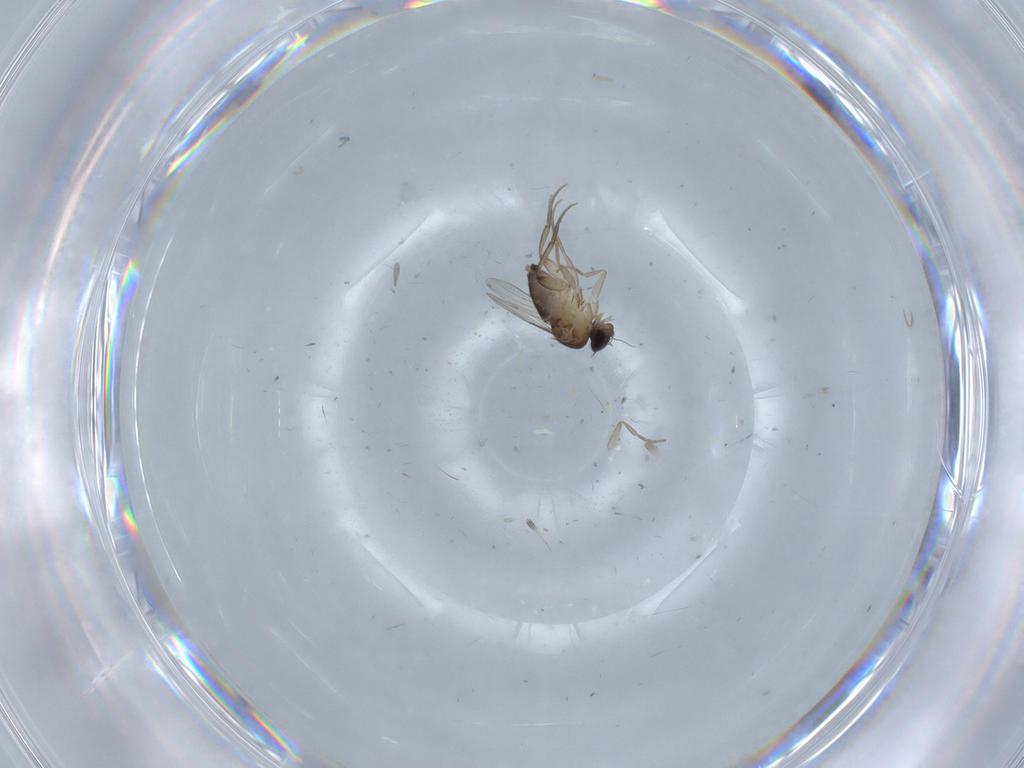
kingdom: Animalia
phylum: Arthropoda
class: Insecta
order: Diptera
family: Phoridae
